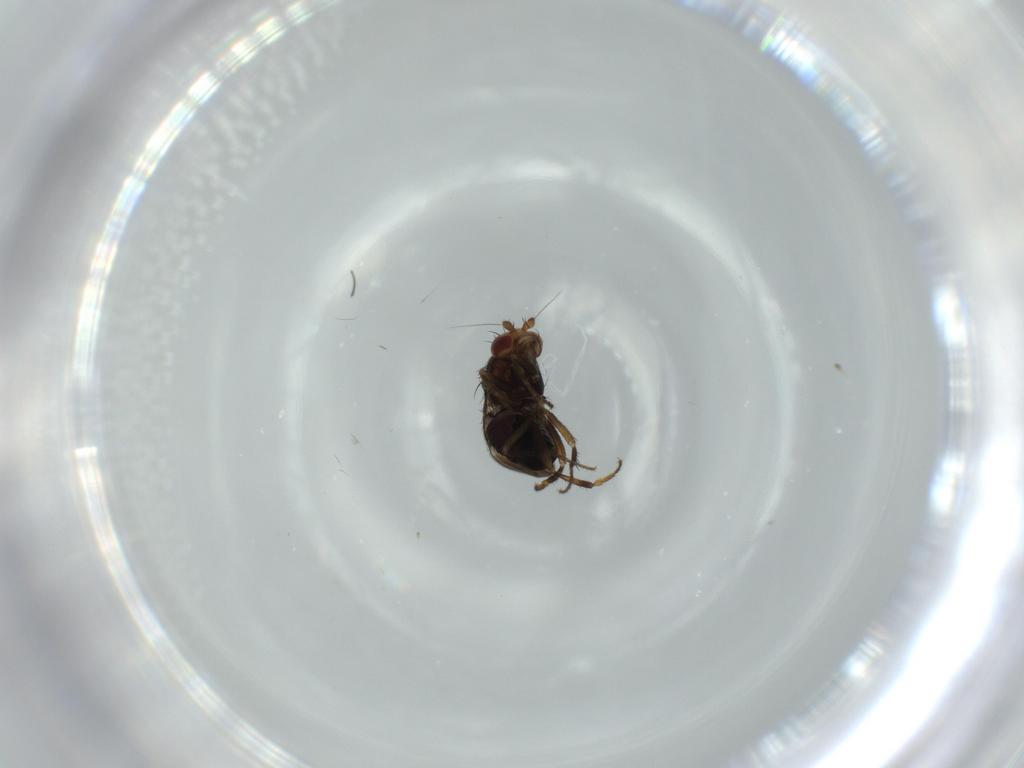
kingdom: Animalia
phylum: Arthropoda
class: Insecta
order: Diptera
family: Sphaeroceridae
